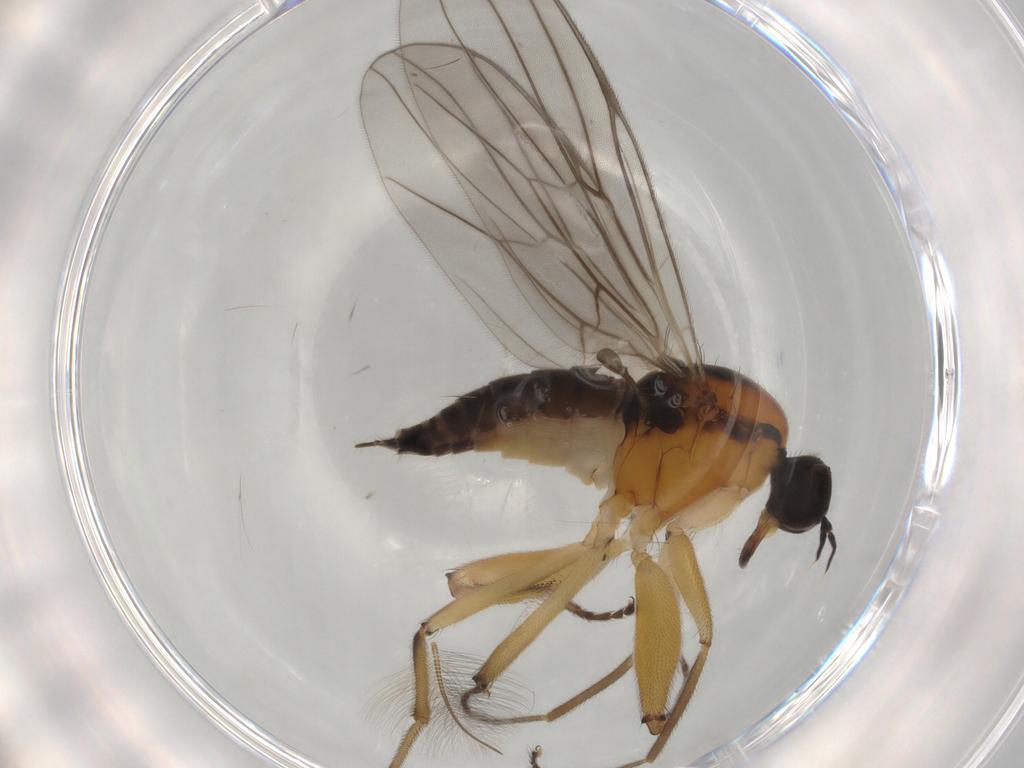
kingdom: Animalia
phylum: Arthropoda
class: Insecta
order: Diptera
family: Hybotidae
